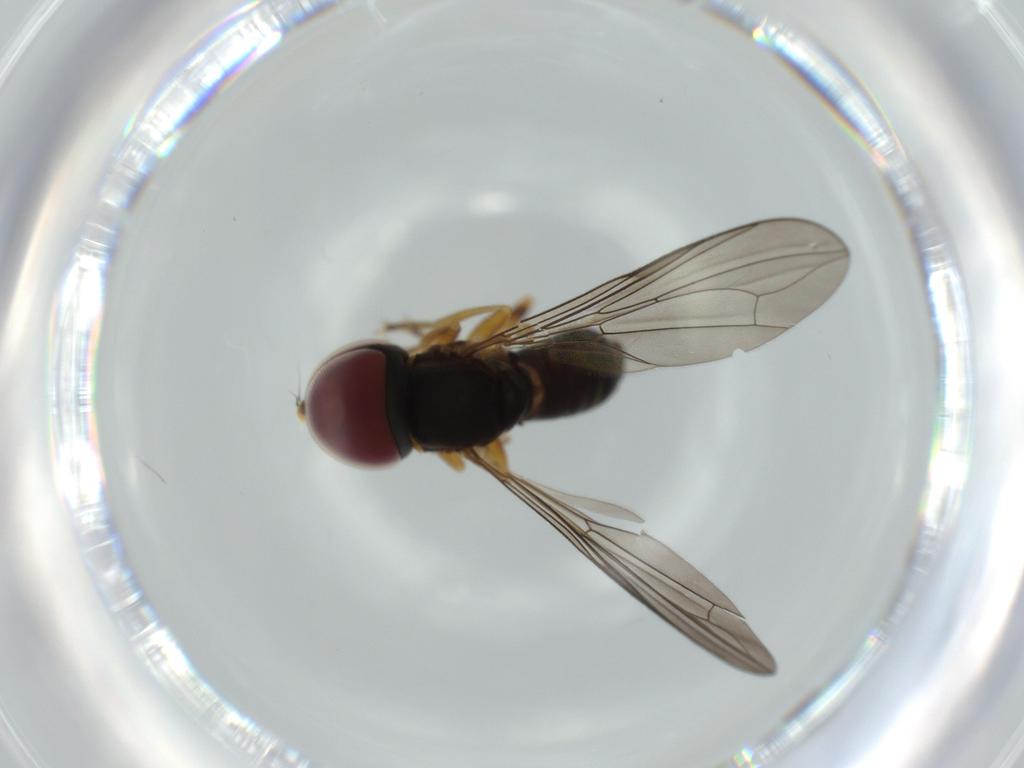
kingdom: Animalia
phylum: Arthropoda
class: Insecta
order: Diptera
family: Pipunculidae
